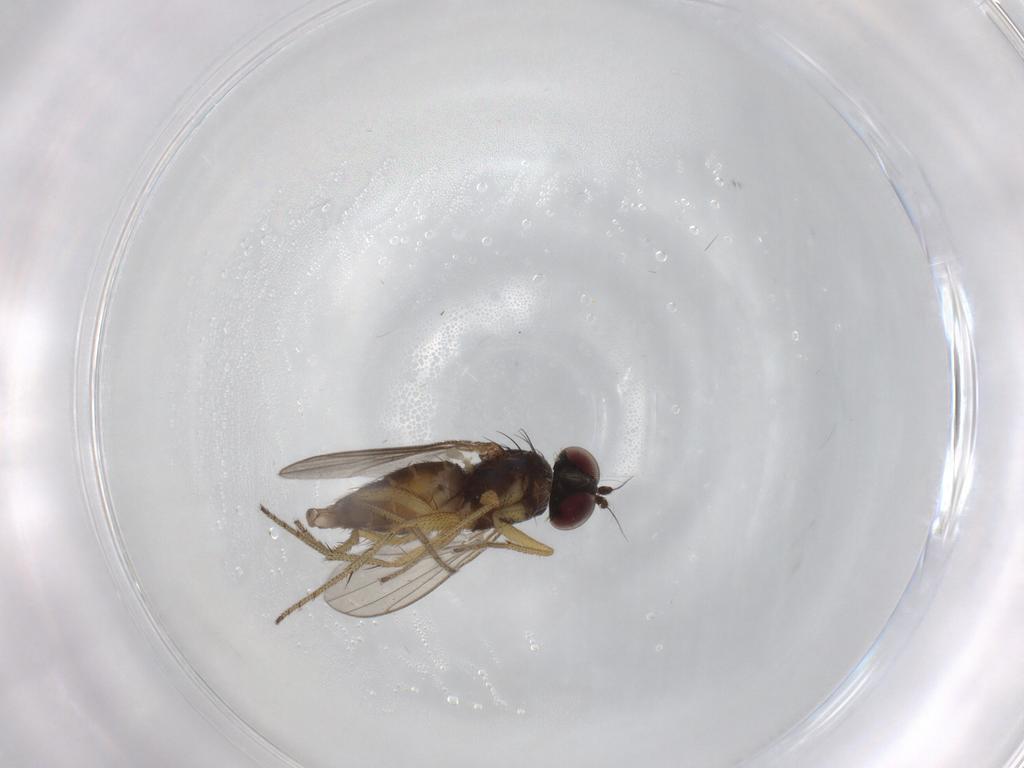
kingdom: Animalia
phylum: Arthropoda
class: Insecta
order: Diptera
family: Chironomidae
